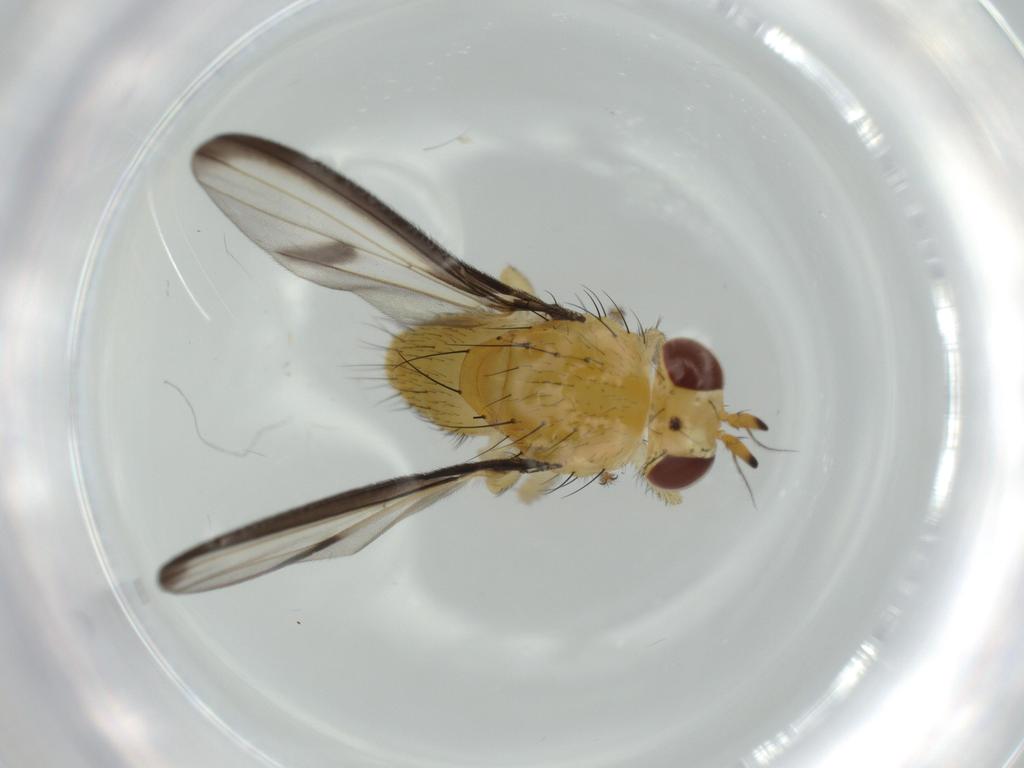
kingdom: Animalia
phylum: Arthropoda
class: Insecta
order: Diptera
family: Lauxaniidae
